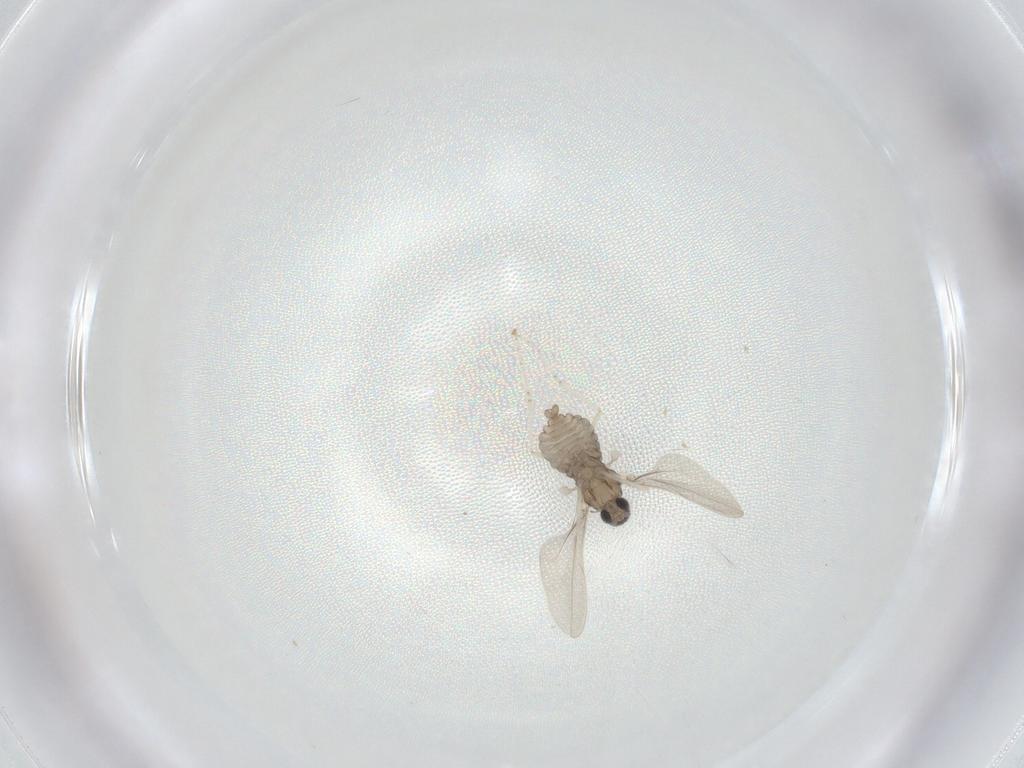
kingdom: Animalia
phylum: Arthropoda
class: Insecta
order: Diptera
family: Cecidomyiidae
